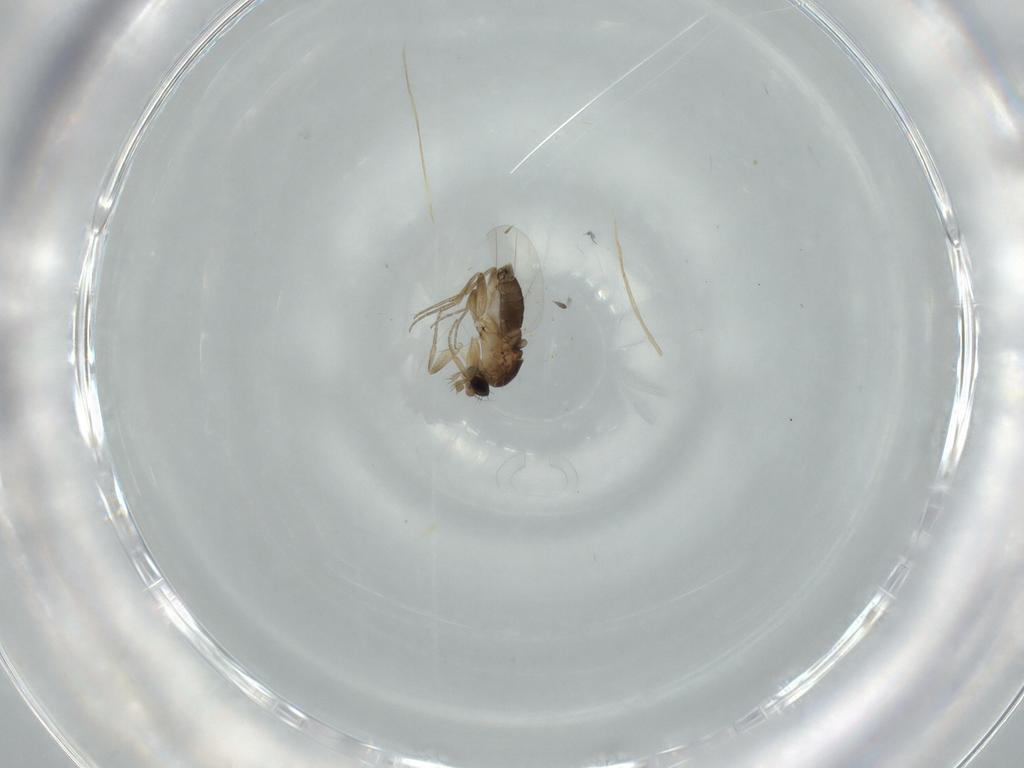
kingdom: Animalia
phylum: Arthropoda
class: Insecta
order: Diptera
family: Phoridae
